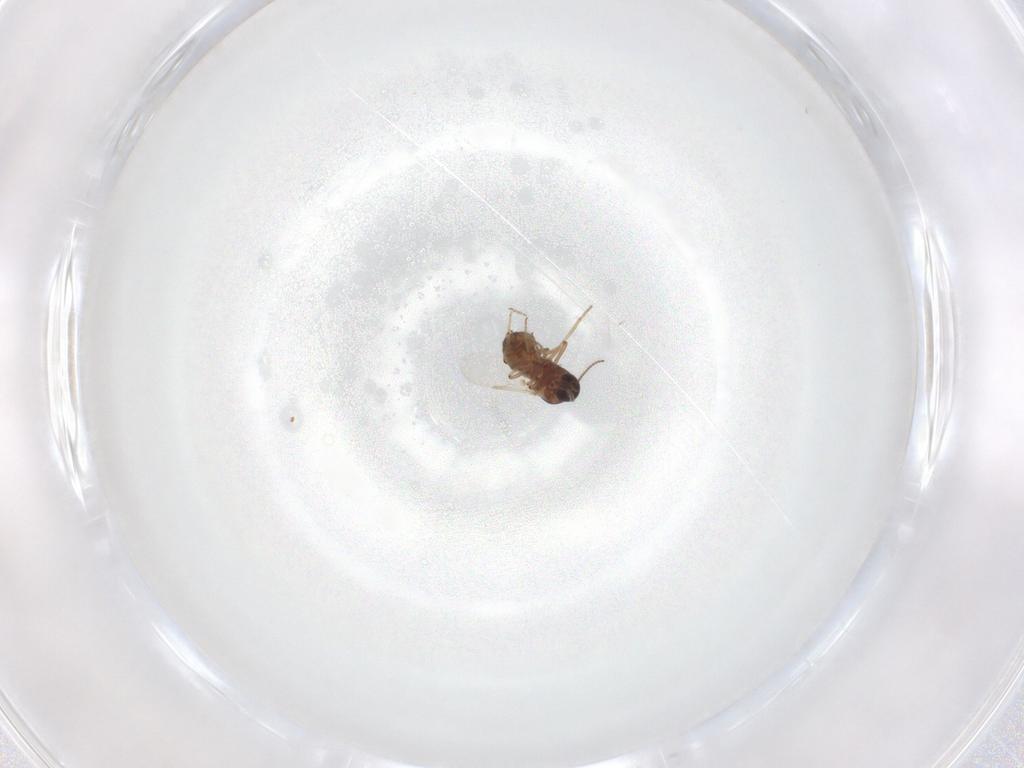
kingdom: Animalia
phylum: Arthropoda
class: Insecta
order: Diptera
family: Ceratopogonidae
